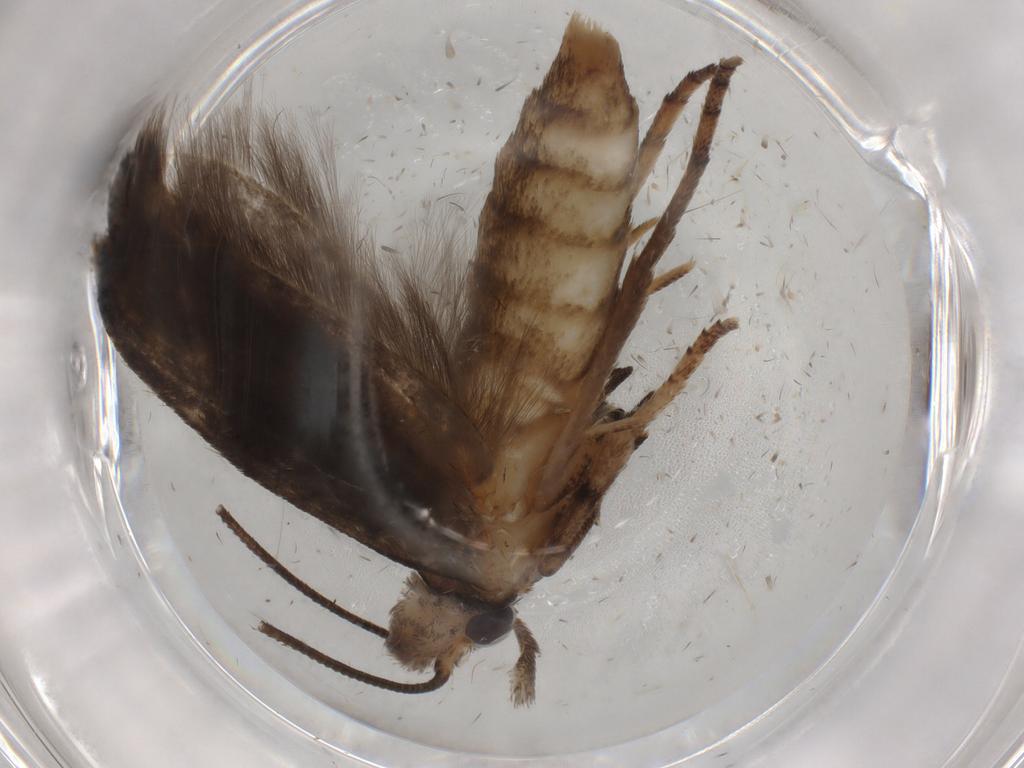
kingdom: Animalia
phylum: Arthropoda
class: Insecta
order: Lepidoptera
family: Yponomeutidae
